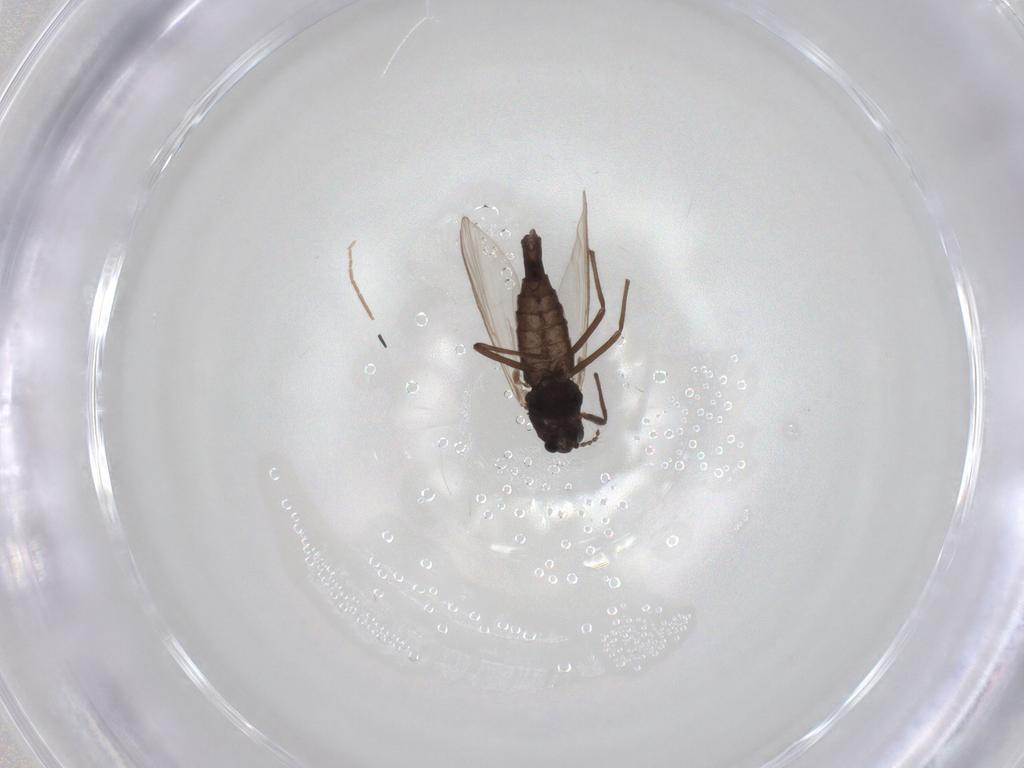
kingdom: Animalia
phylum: Arthropoda
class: Insecta
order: Diptera
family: Chironomidae
